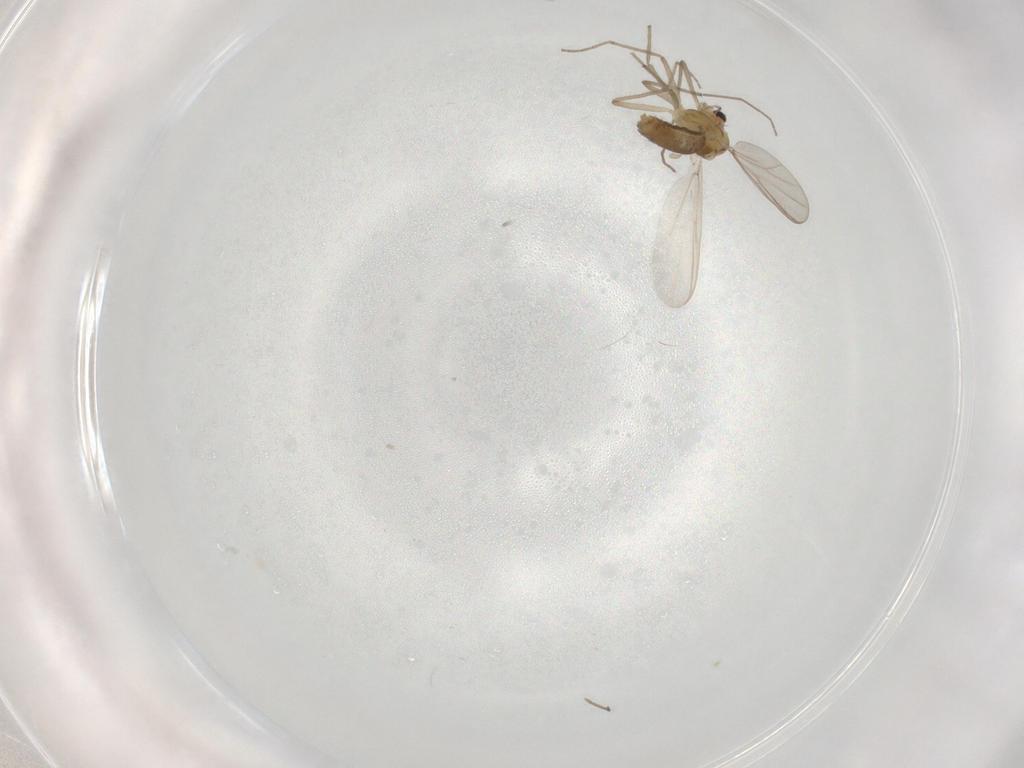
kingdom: Animalia
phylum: Arthropoda
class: Insecta
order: Diptera
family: Chironomidae
